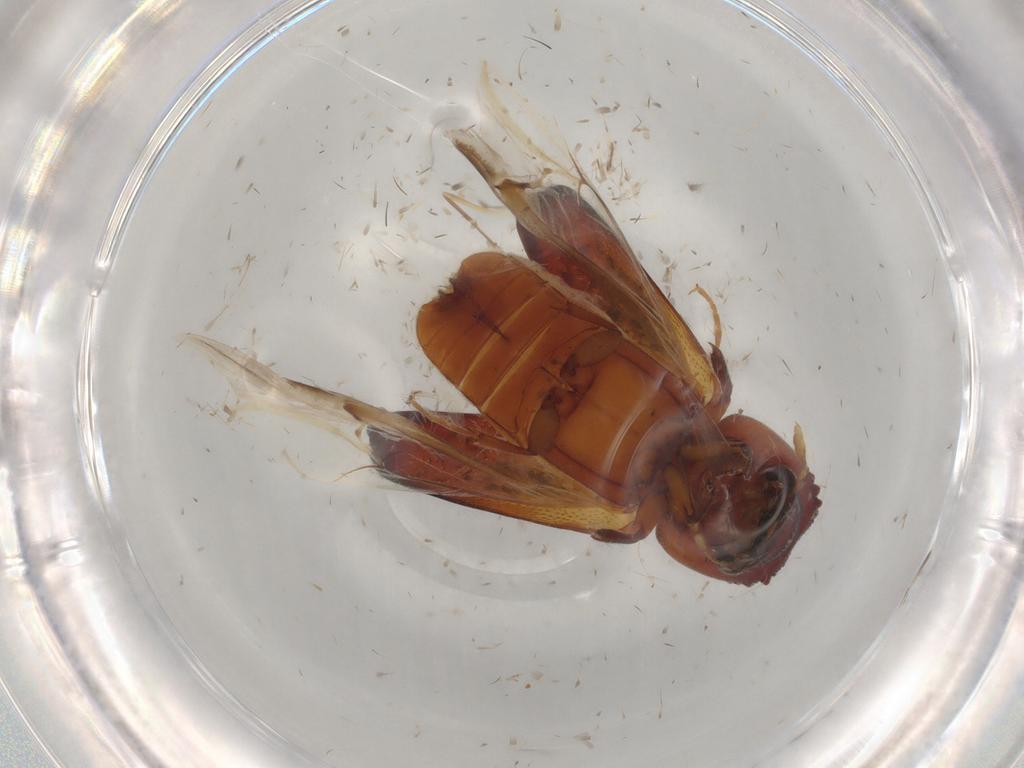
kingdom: Animalia
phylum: Arthropoda
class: Insecta
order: Coleoptera
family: Bostrichidae
